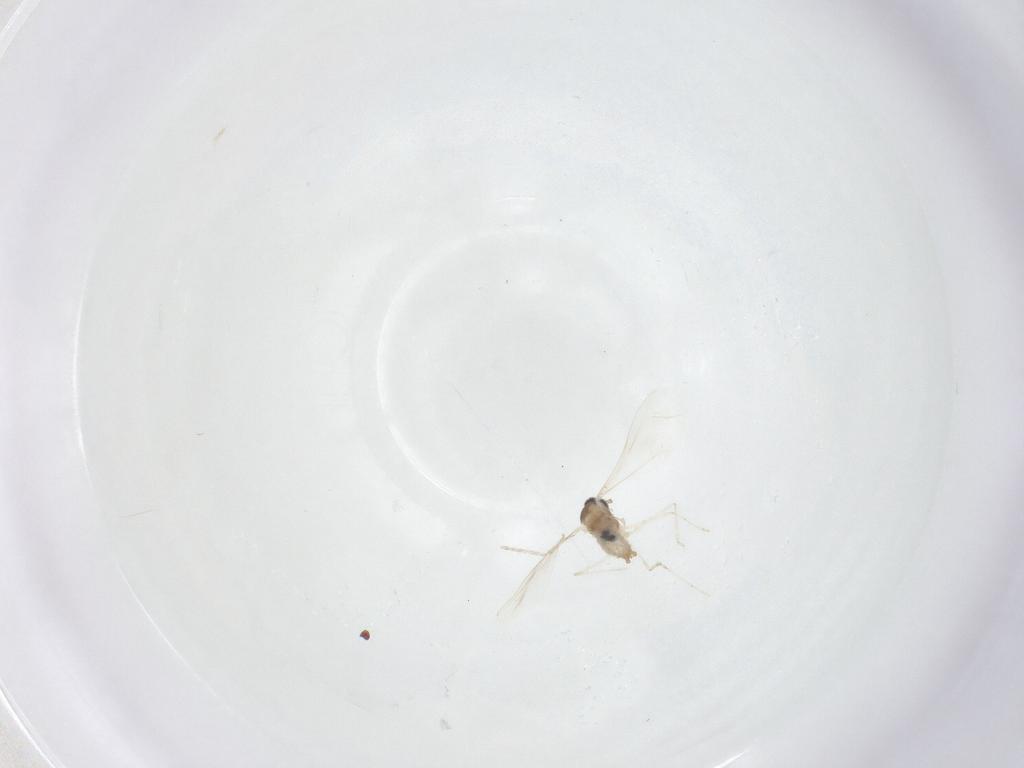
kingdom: Animalia
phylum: Arthropoda
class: Insecta
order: Diptera
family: Cecidomyiidae
